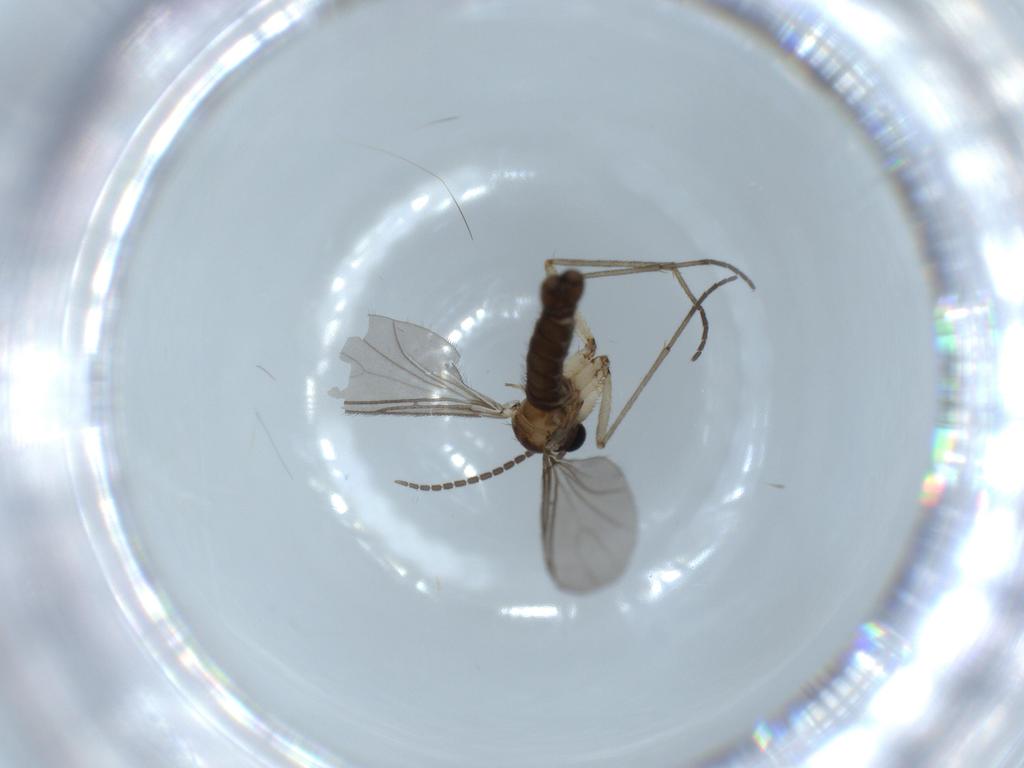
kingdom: Animalia
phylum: Arthropoda
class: Insecta
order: Diptera
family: Sciaridae
